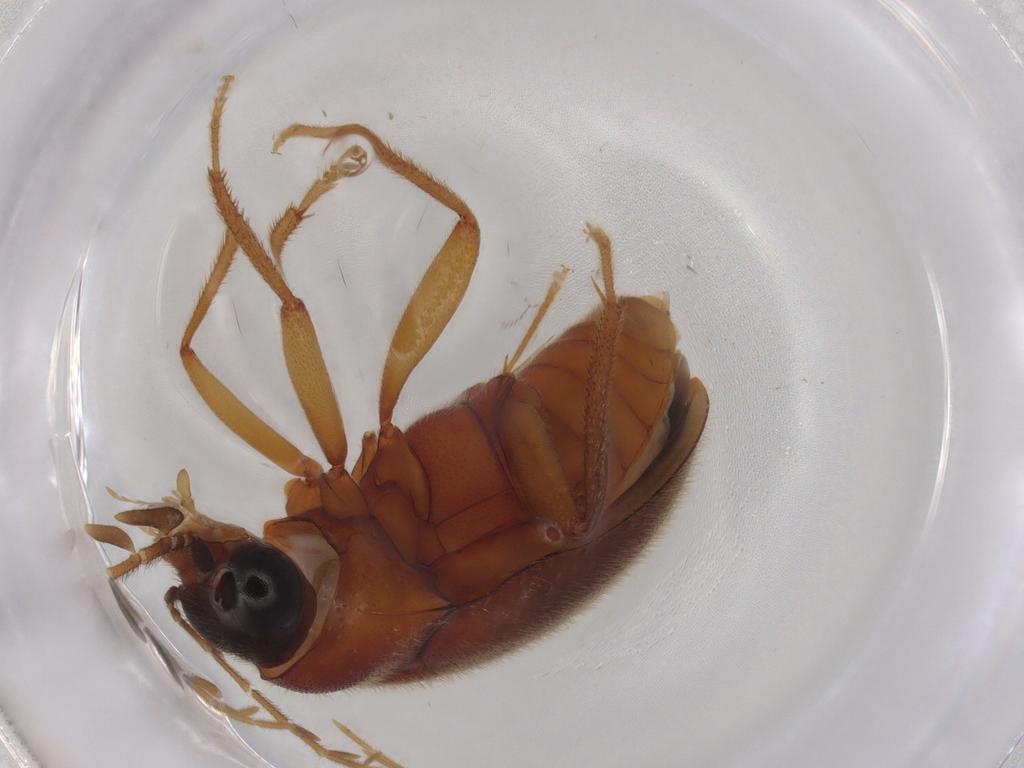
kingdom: Animalia
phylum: Arthropoda
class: Insecta
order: Coleoptera
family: Ptilodactylidae
